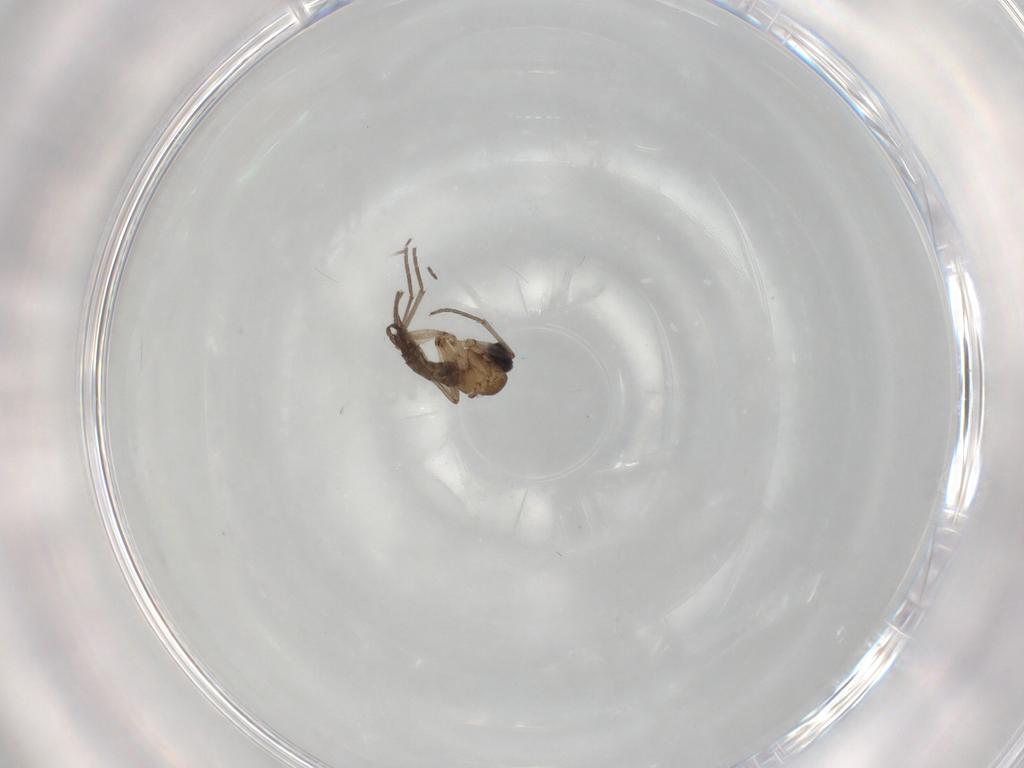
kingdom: Animalia
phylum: Arthropoda
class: Insecta
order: Diptera
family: Sciaridae
